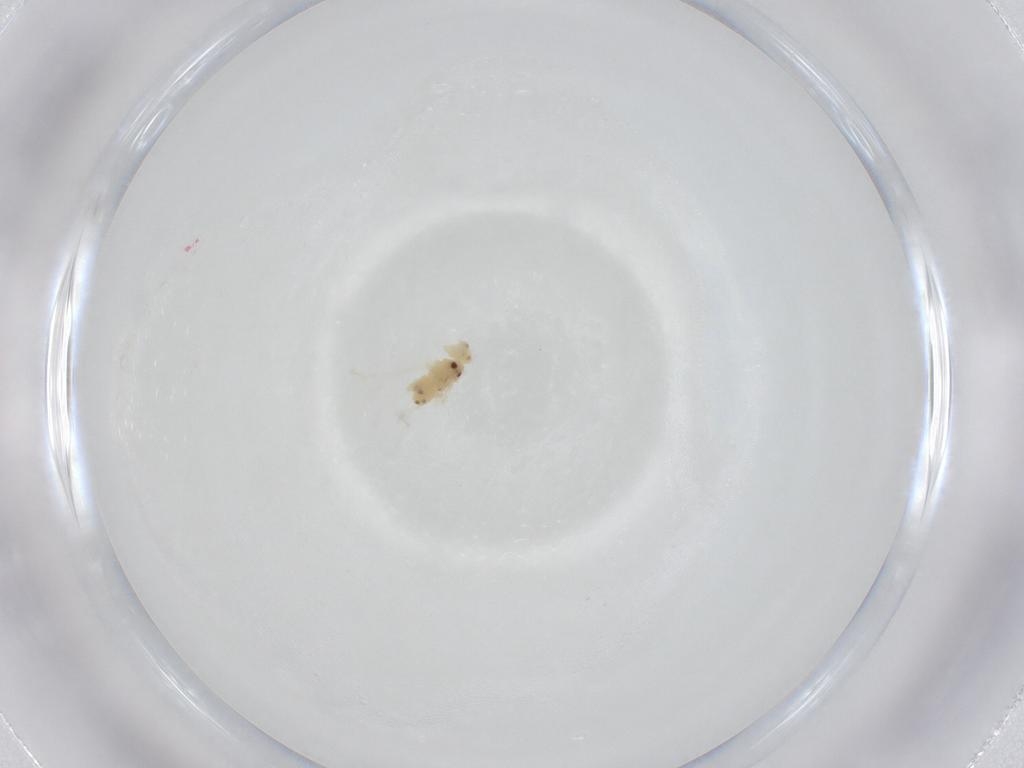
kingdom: Animalia
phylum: Arthropoda
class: Insecta
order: Hemiptera
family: Aleyrodidae
